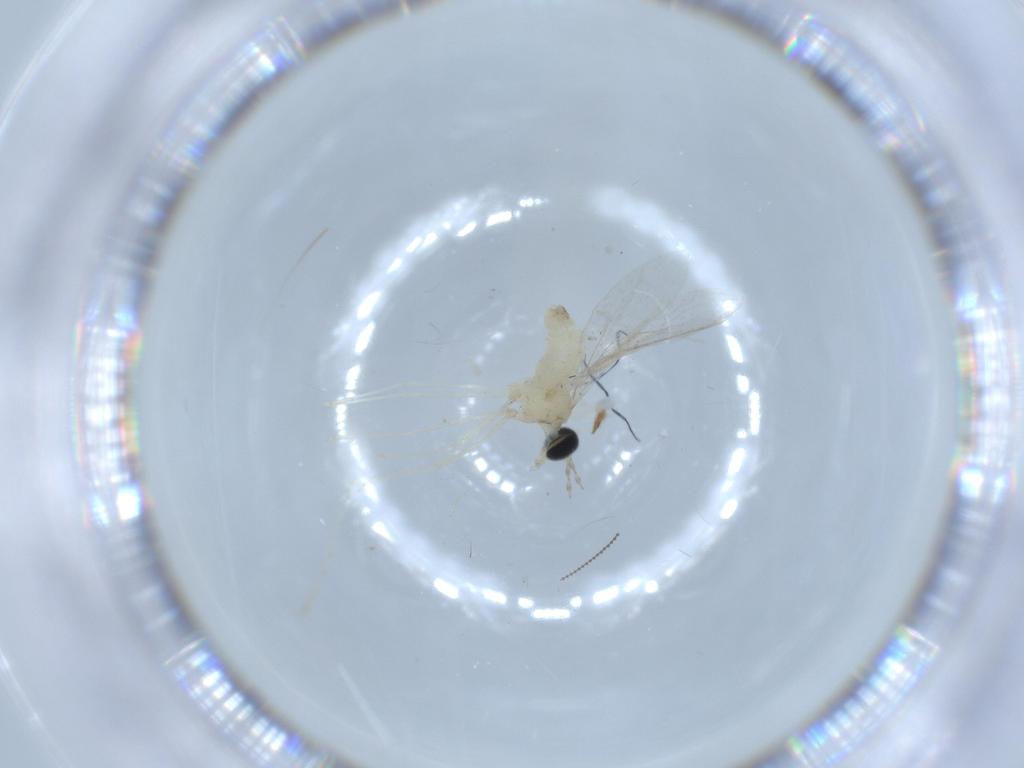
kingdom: Animalia
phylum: Arthropoda
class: Insecta
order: Diptera
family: Cecidomyiidae
